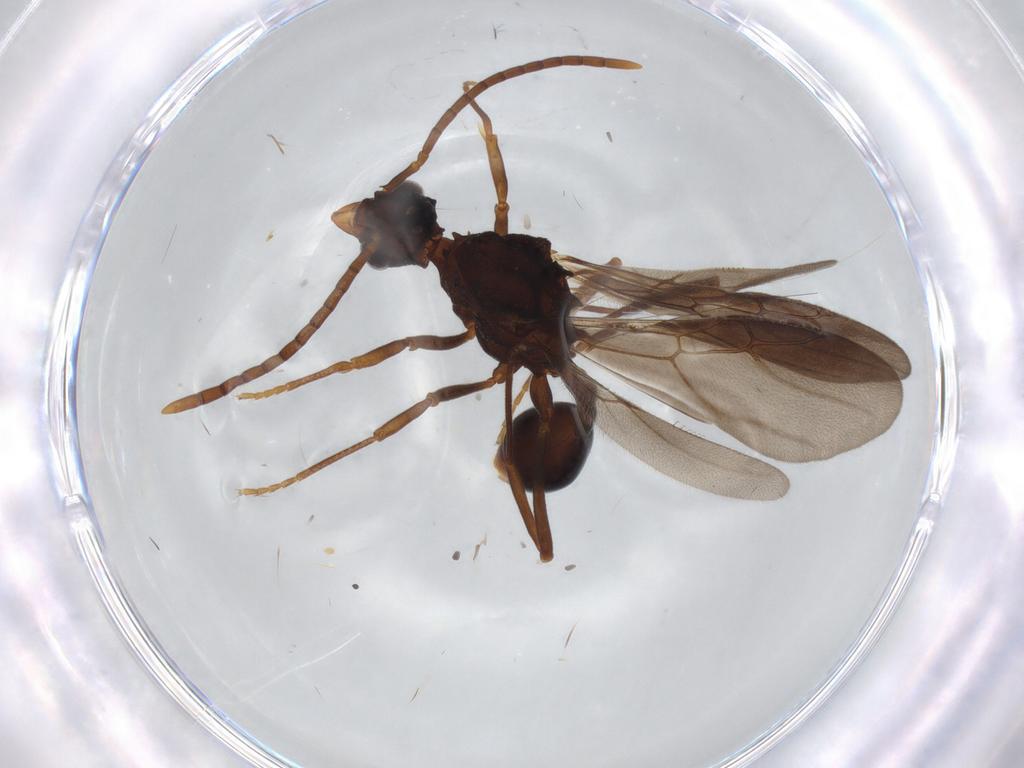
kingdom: Animalia
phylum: Arthropoda
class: Insecta
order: Hymenoptera
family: Formicidae
